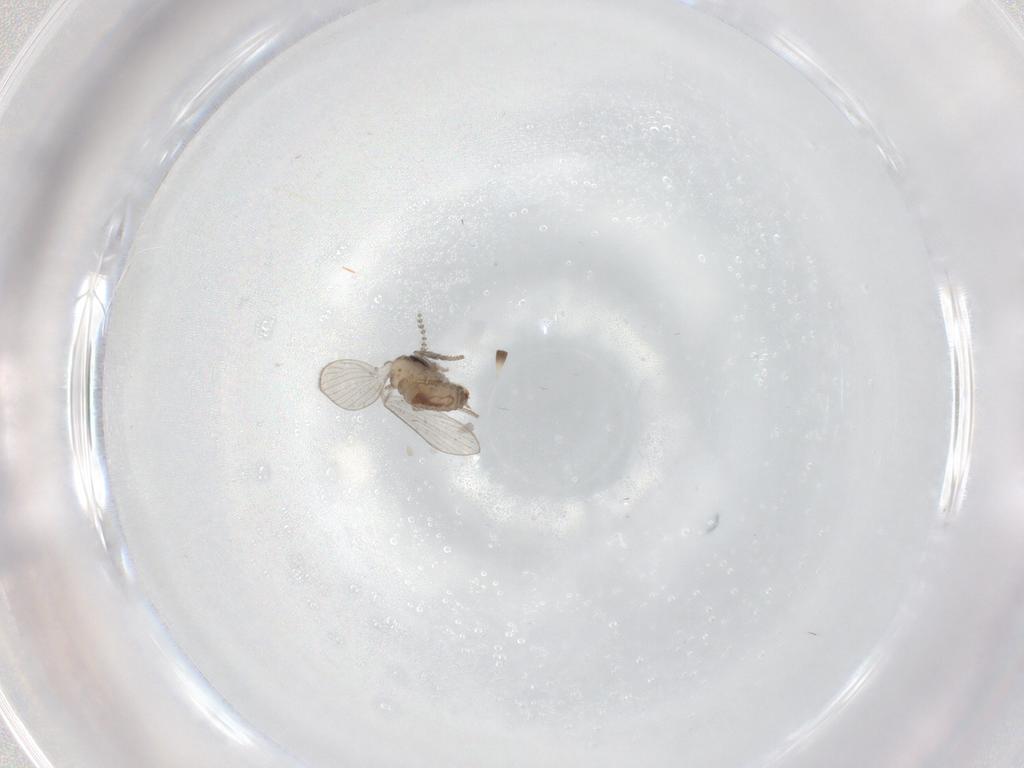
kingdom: Animalia
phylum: Arthropoda
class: Insecta
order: Diptera
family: Psychodidae
